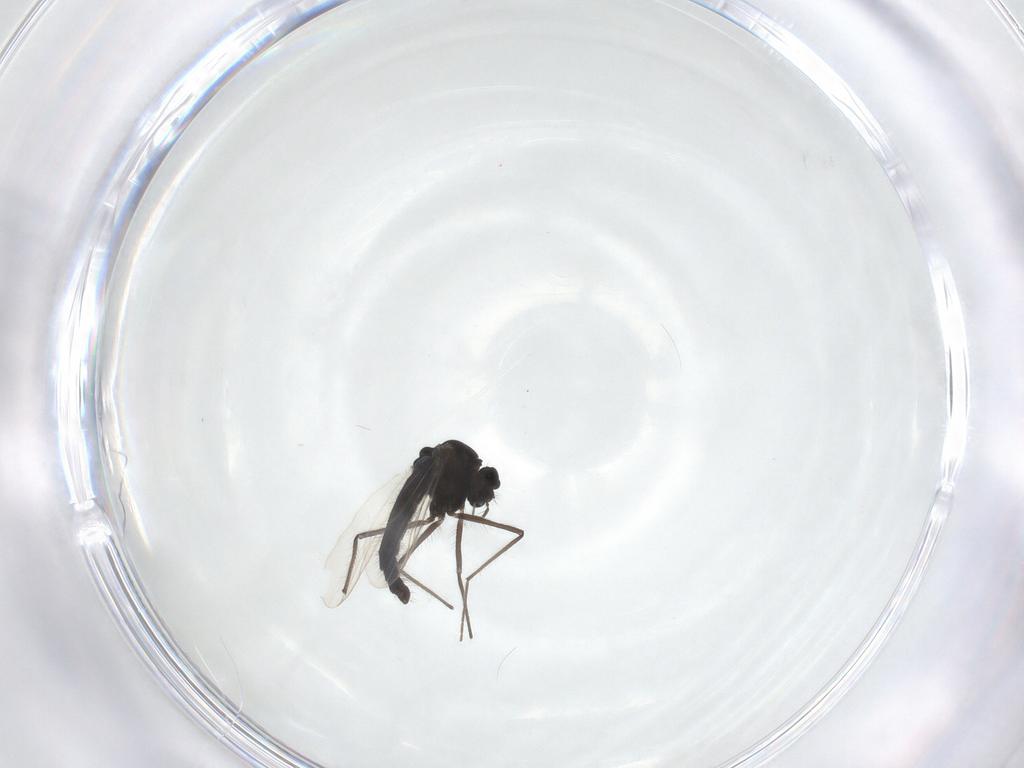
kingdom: Animalia
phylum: Arthropoda
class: Insecta
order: Diptera
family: Chironomidae
